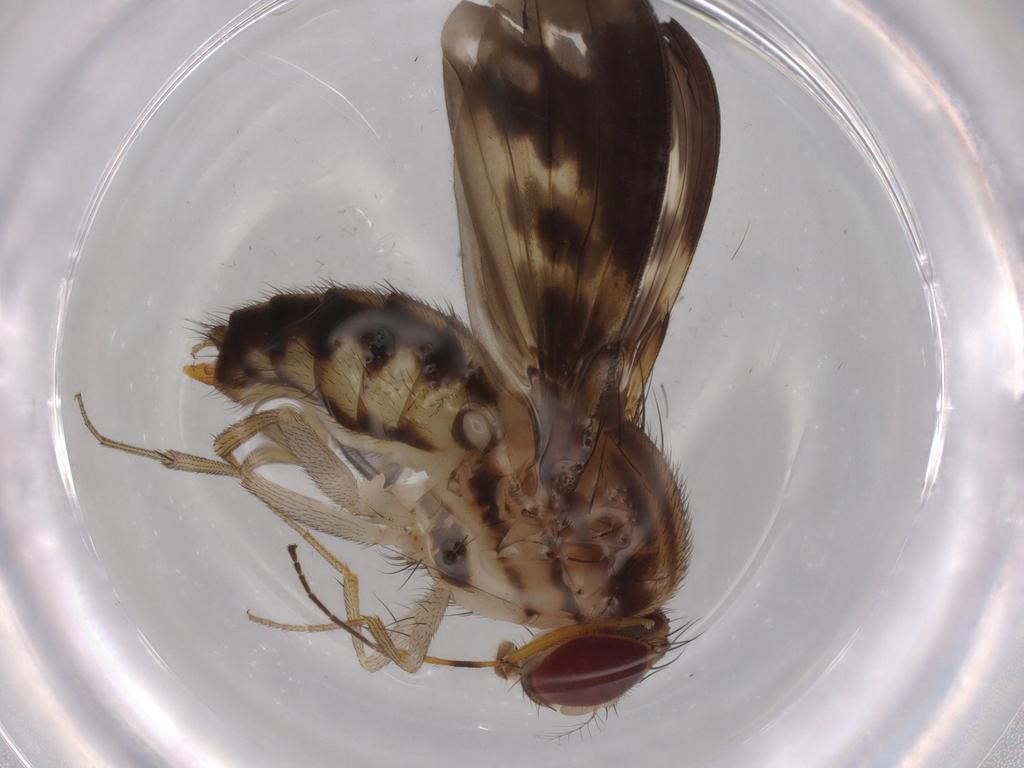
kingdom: Animalia
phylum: Arthropoda
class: Insecta
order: Diptera
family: Drosophilidae
